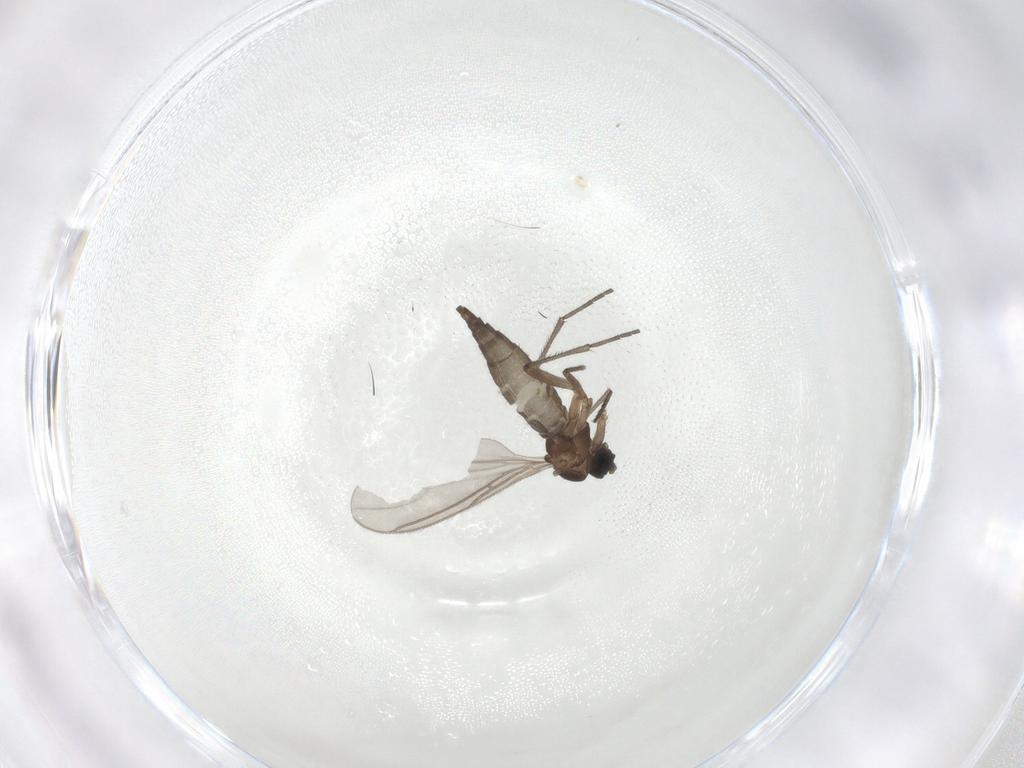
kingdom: Animalia
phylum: Arthropoda
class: Insecta
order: Diptera
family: Sciaridae
